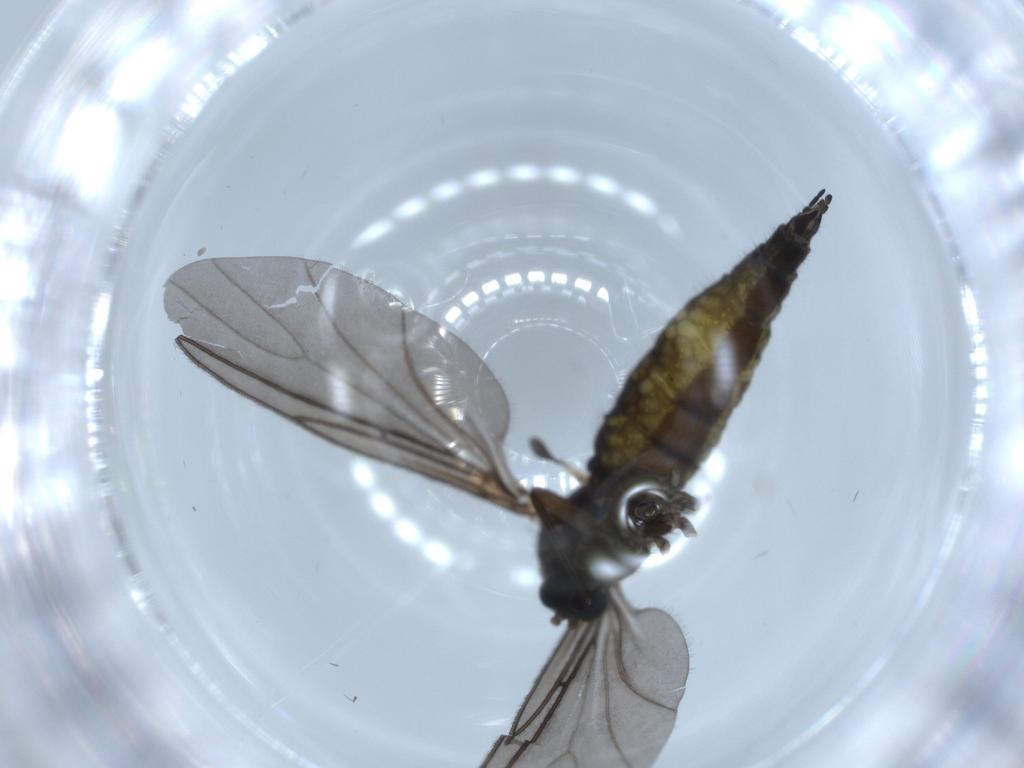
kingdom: Animalia
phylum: Arthropoda
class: Insecta
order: Diptera
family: Sciaridae
